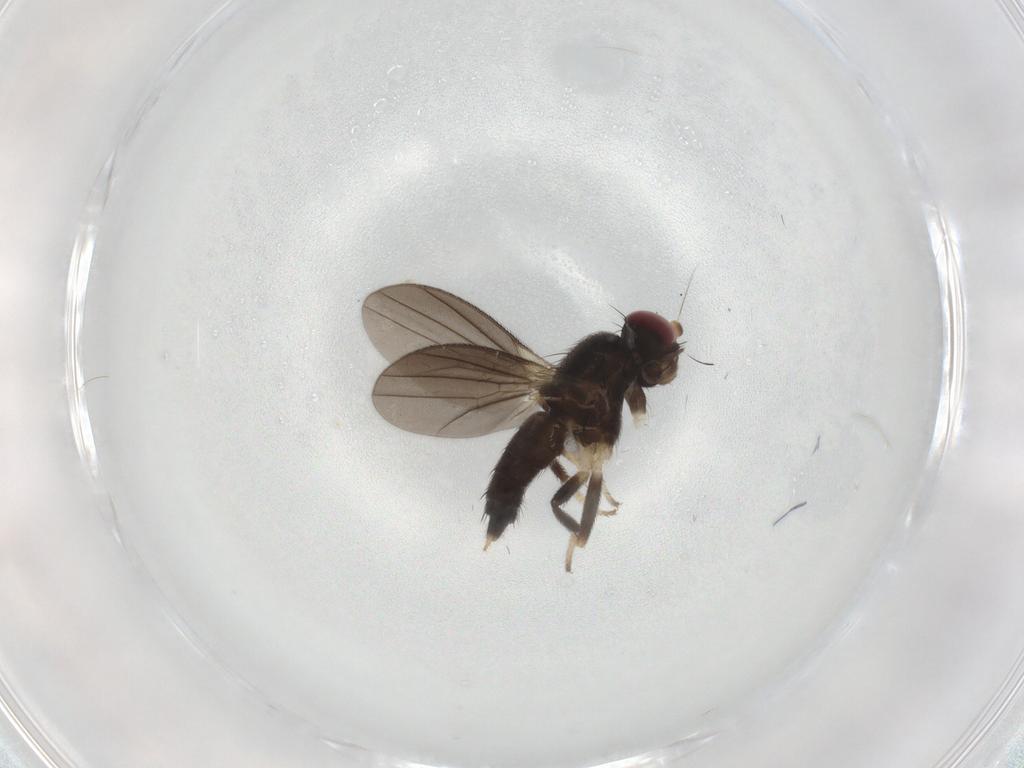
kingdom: Animalia
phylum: Arthropoda
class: Insecta
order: Diptera
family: Clusiidae
